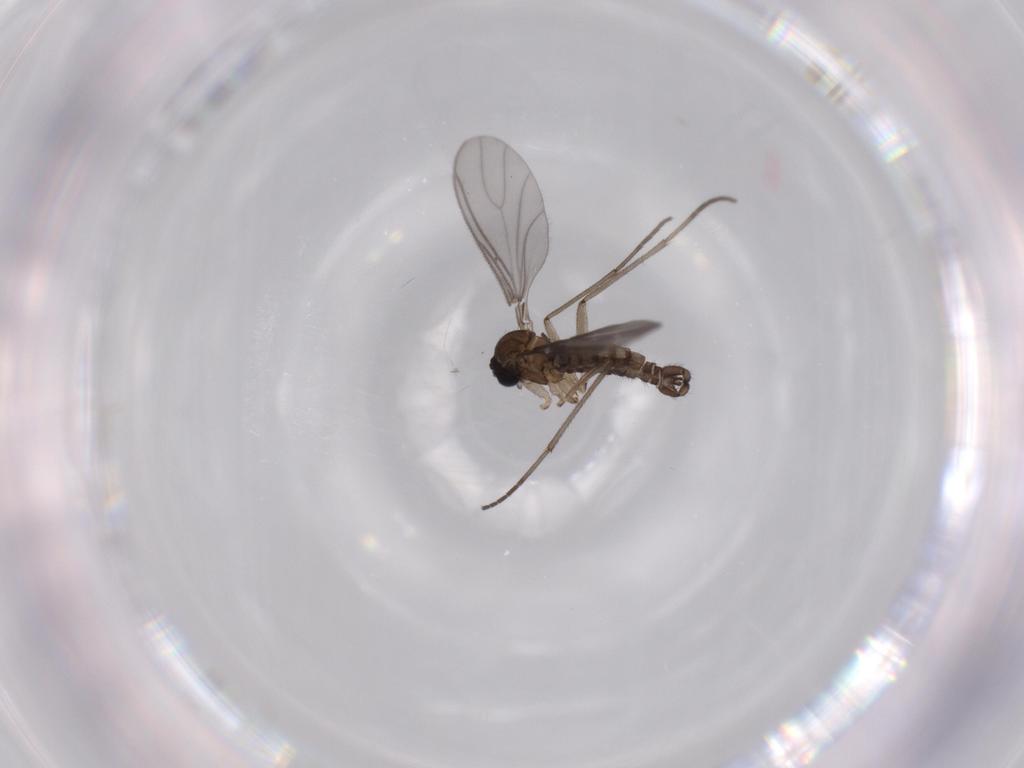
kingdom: Animalia
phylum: Arthropoda
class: Insecta
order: Diptera
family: Sciaridae
